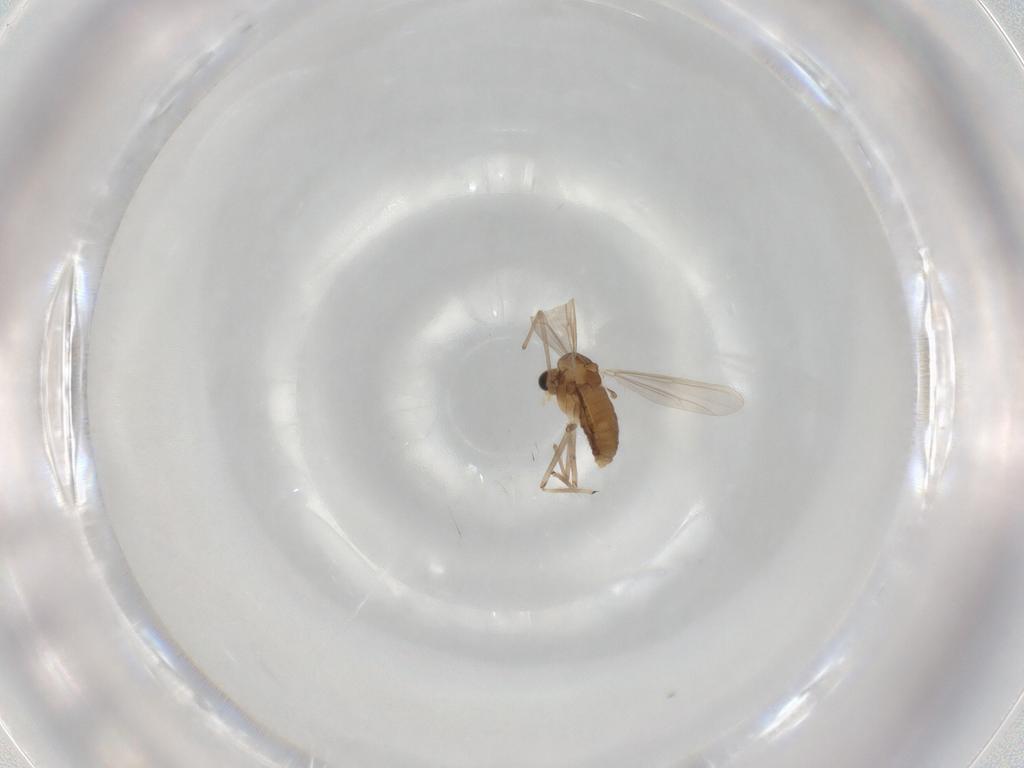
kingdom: Animalia
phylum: Arthropoda
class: Insecta
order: Diptera
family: Chironomidae
